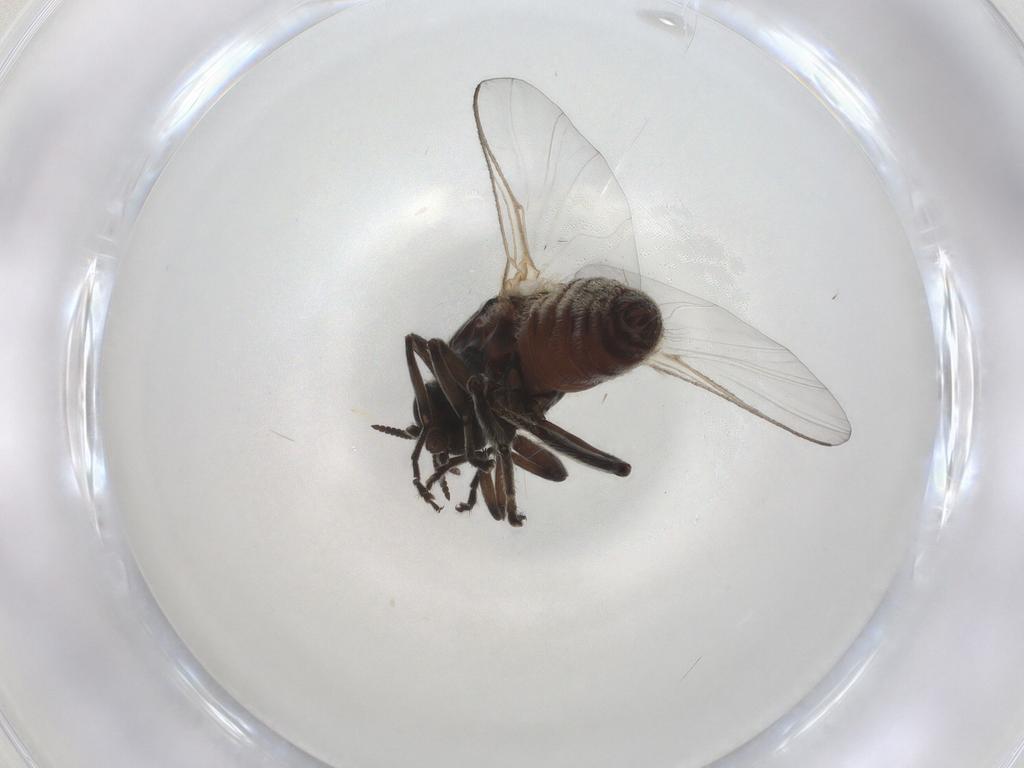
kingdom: Animalia
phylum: Arthropoda
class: Insecta
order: Diptera
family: Ceratopogonidae
